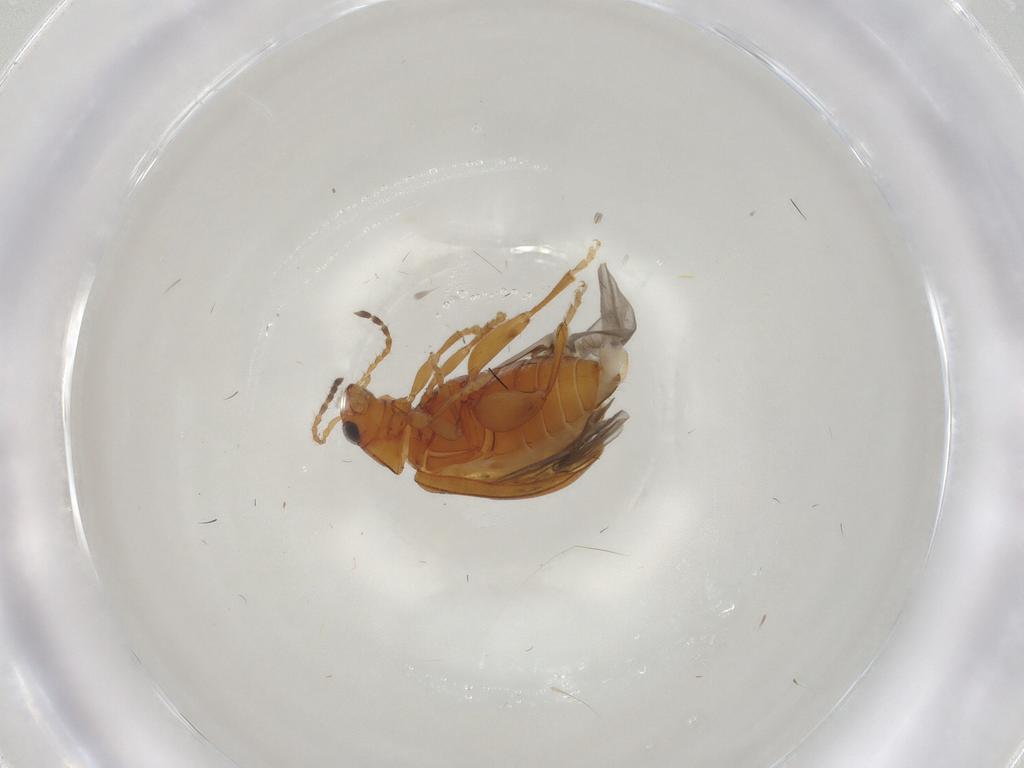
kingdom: Animalia
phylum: Arthropoda
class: Insecta
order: Coleoptera
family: Chrysomelidae
